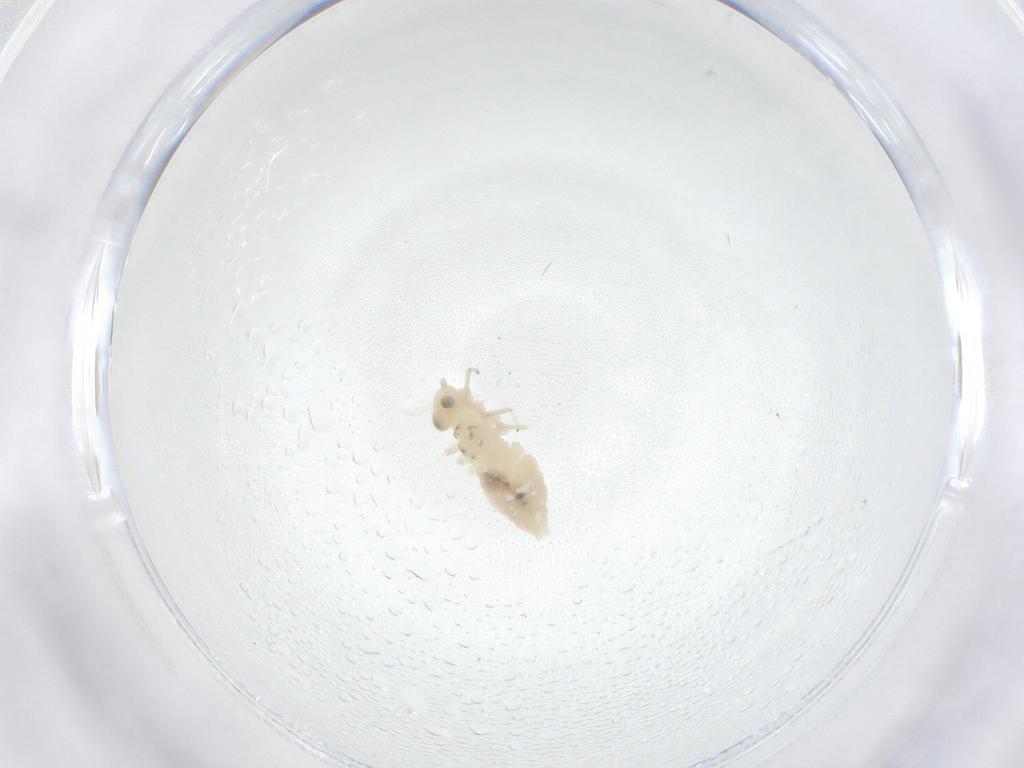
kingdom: Animalia
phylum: Arthropoda
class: Insecta
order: Psocodea
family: Caeciliusidae
